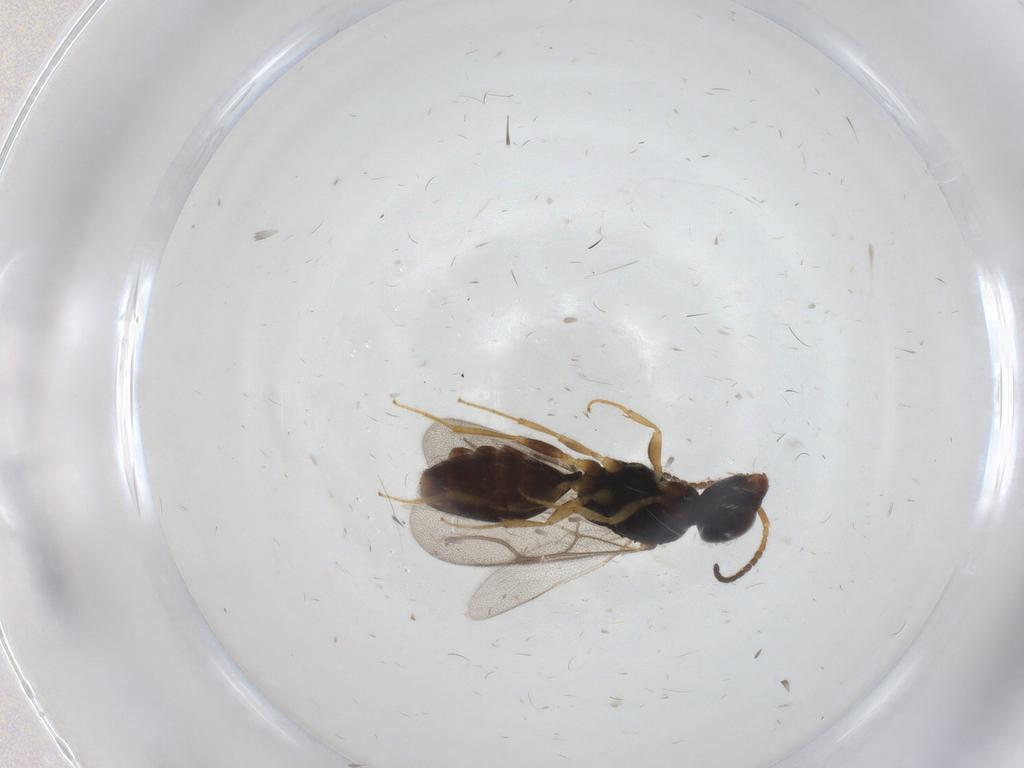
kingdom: Animalia
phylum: Arthropoda
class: Insecta
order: Hymenoptera
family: Bethylidae
